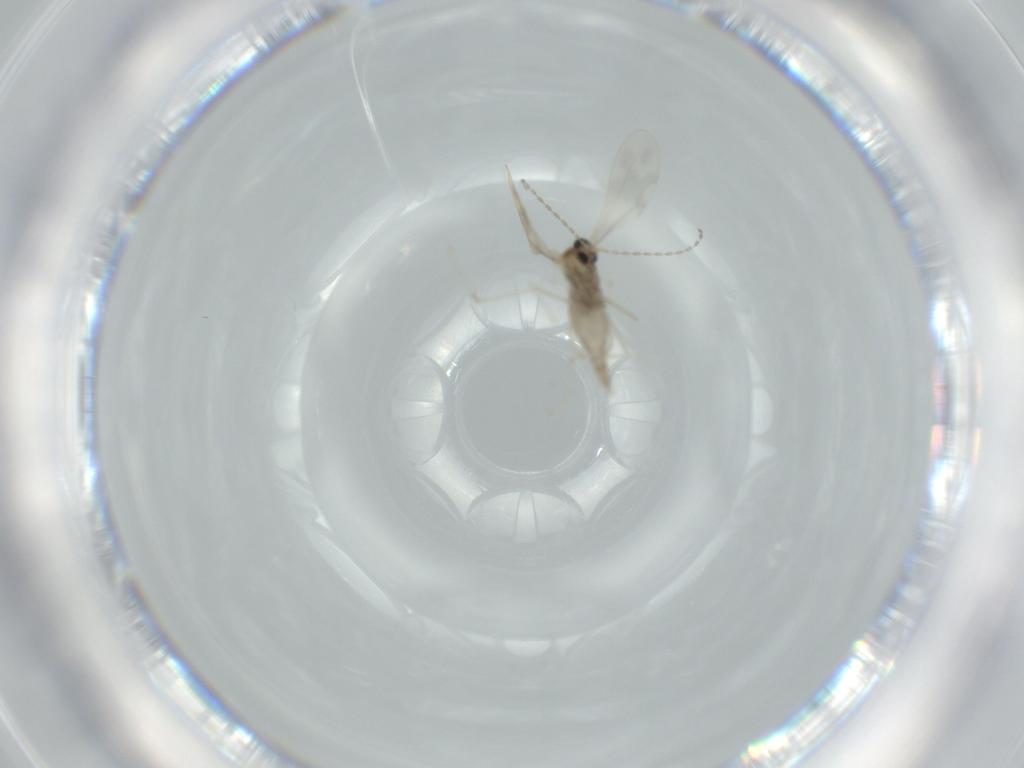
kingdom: Animalia
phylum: Arthropoda
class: Insecta
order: Diptera
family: Cecidomyiidae
